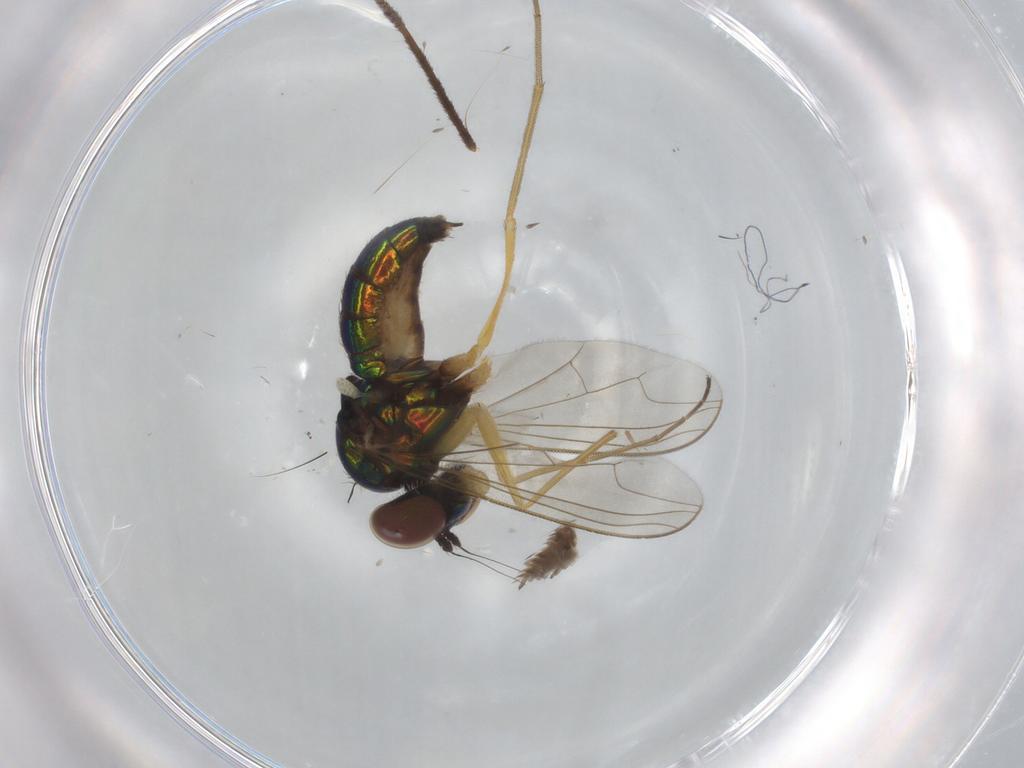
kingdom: Animalia
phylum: Arthropoda
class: Insecta
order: Diptera
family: Dolichopodidae
